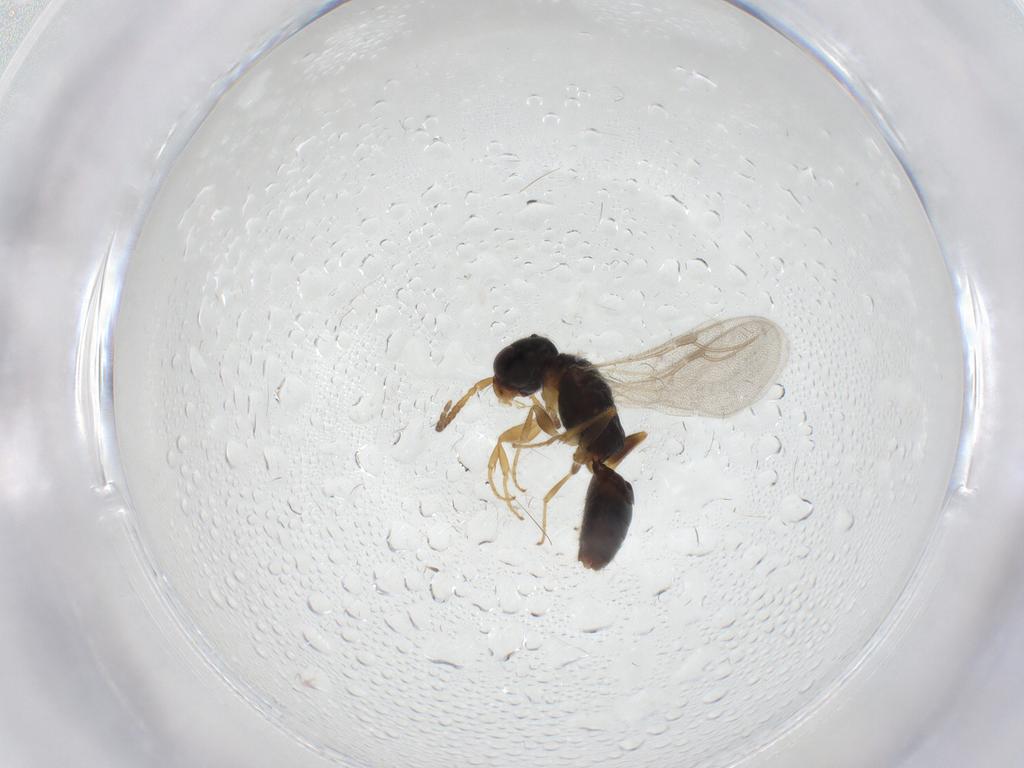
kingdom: Animalia
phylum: Arthropoda
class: Insecta
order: Hymenoptera
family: Bethylidae
